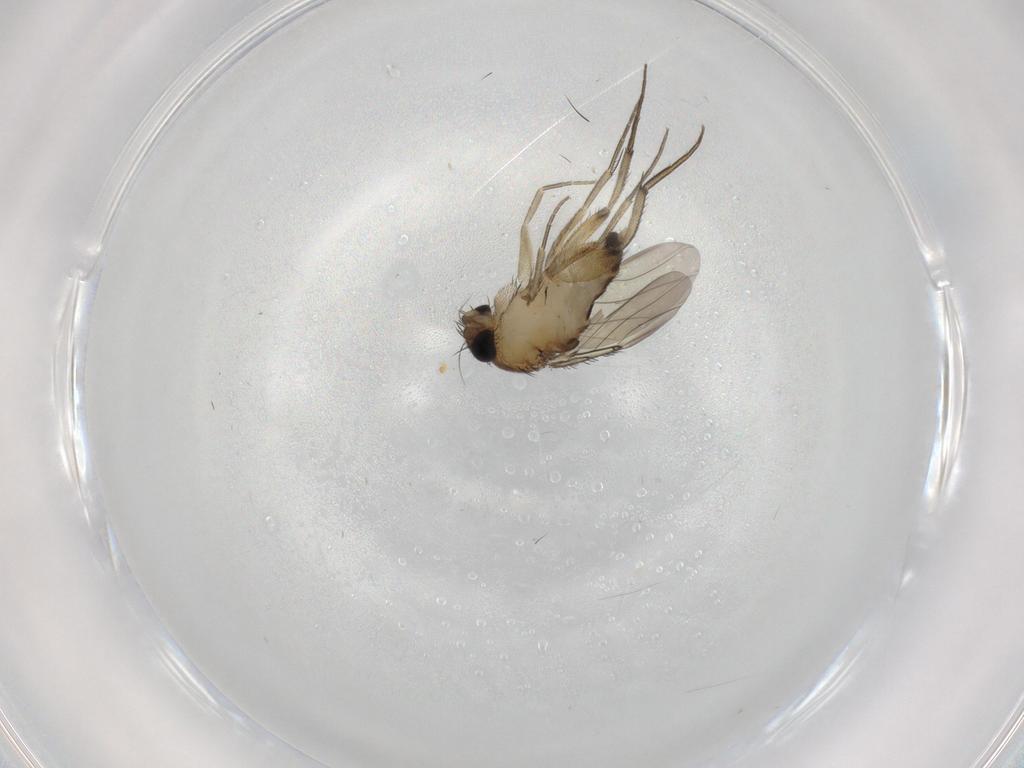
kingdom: Animalia
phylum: Arthropoda
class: Insecta
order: Diptera
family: Phoridae
